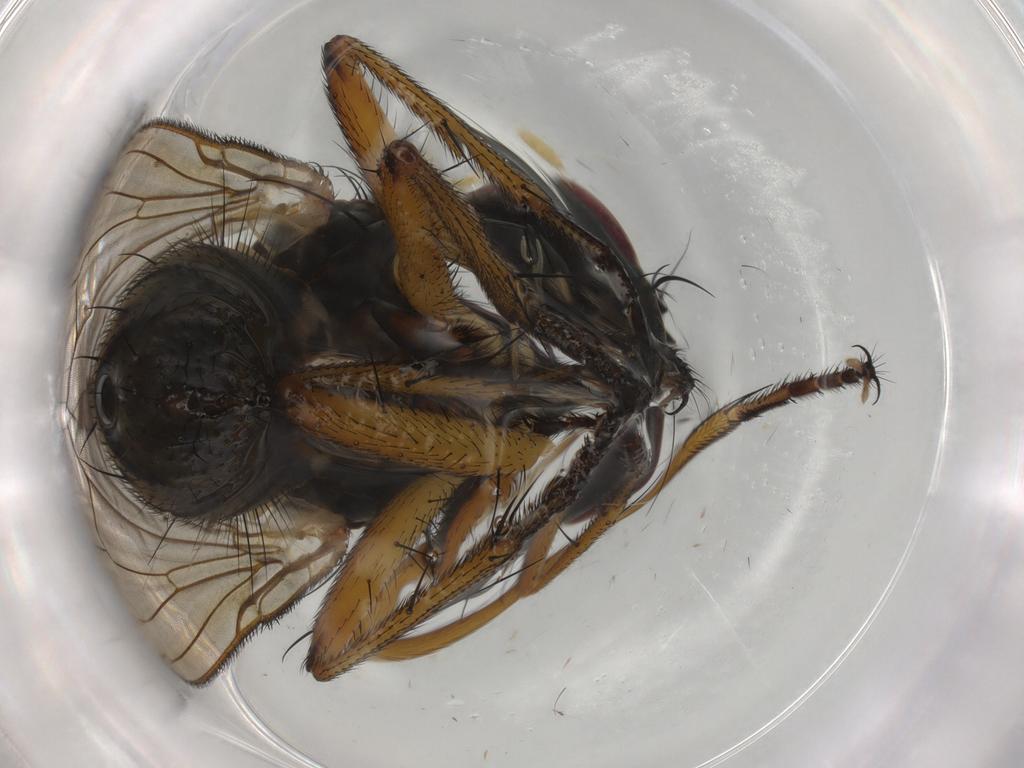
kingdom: Animalia
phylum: Arthropoda
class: Insecta
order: Diptera
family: Muscidae
